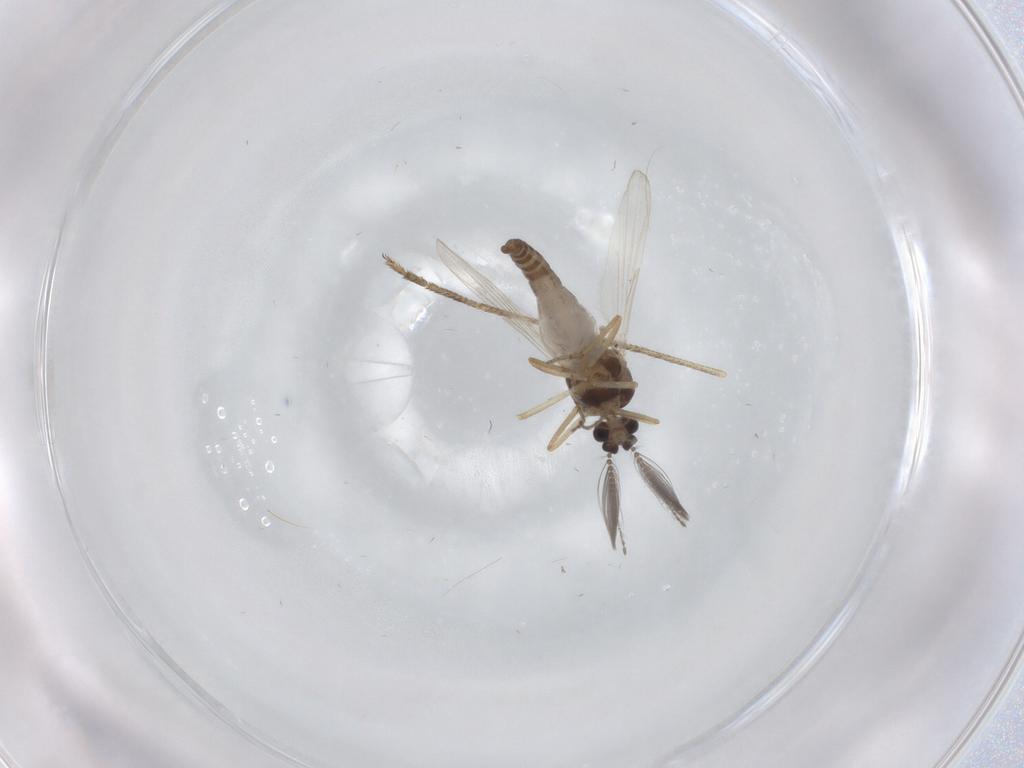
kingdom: Animalia
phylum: Arthropoda
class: Insecta
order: Diptera
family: Ceratopogonidae
